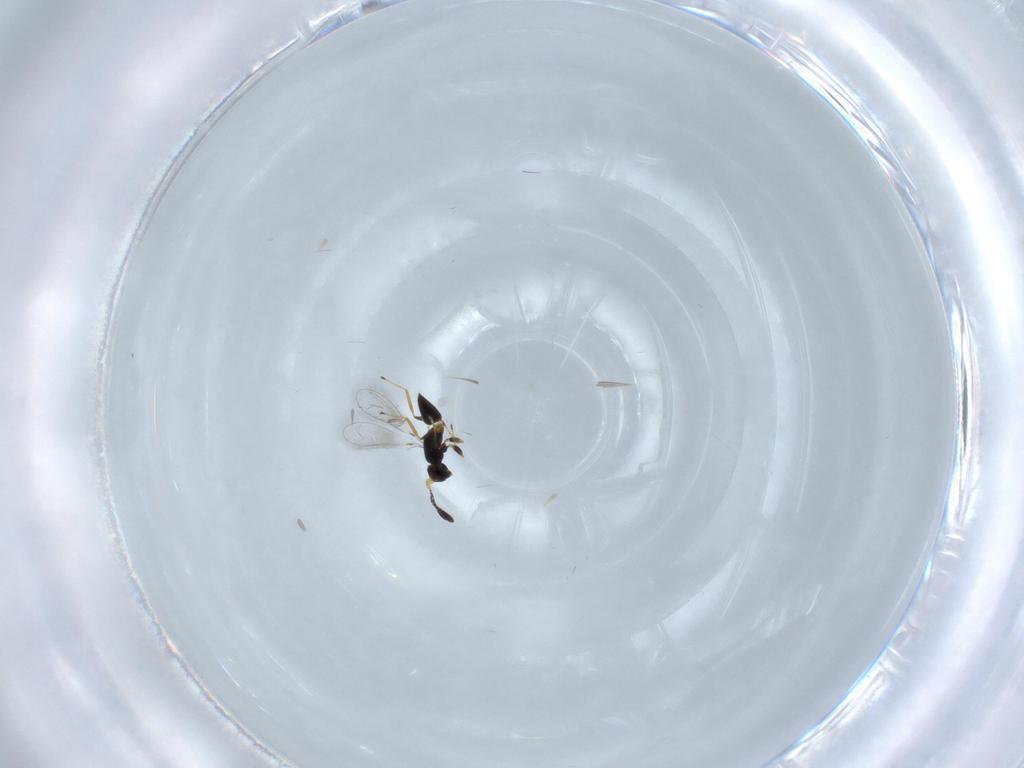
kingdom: Animalia
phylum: Arthropoda
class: Insecta
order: Hymenoptera
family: Mymaridae
